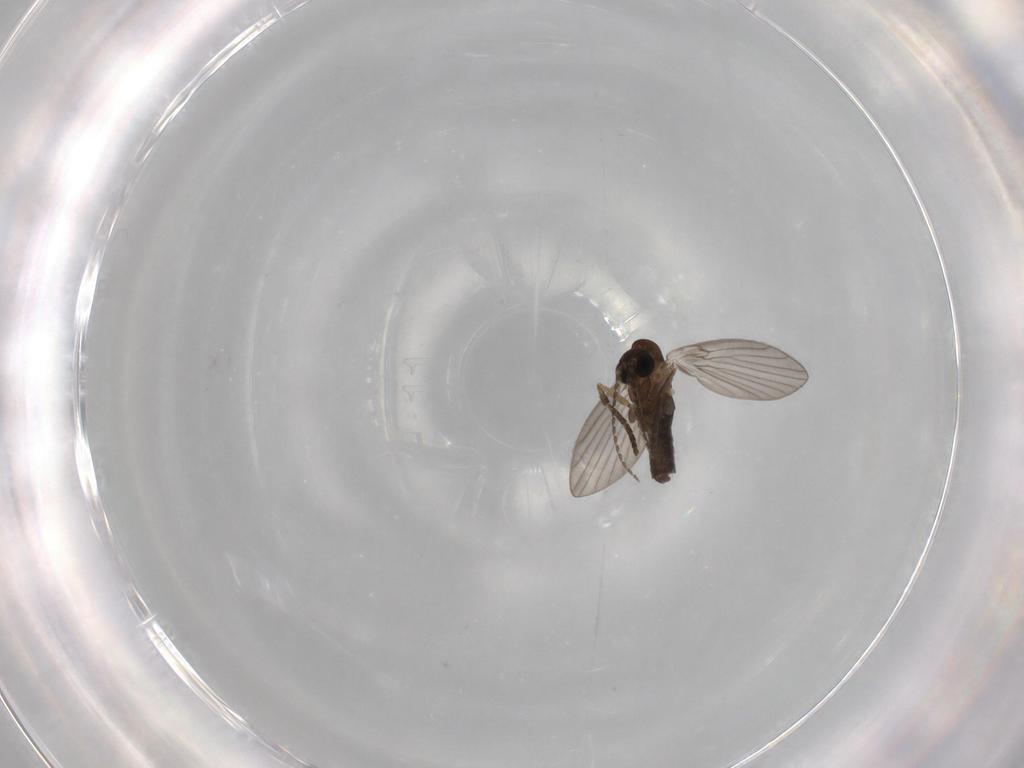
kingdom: Animalia
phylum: Arthropoda
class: Insecta
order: Diptera
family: Psychodidae
